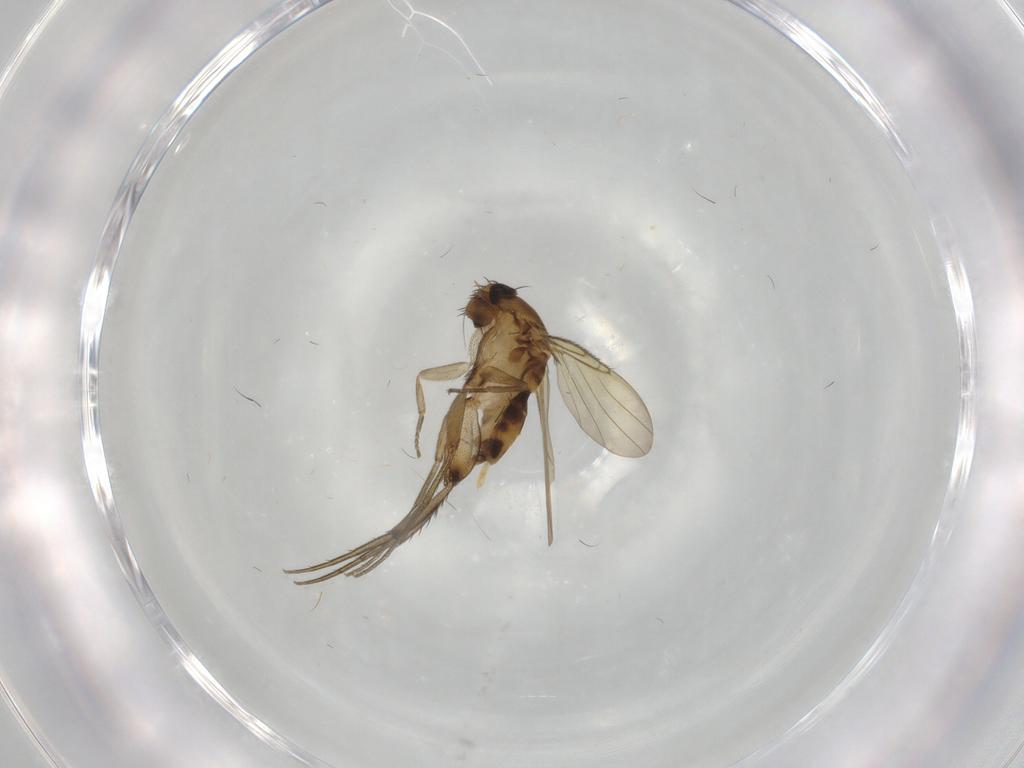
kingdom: Animalia
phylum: Arthropoda
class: Insecta
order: Diptera
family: Phoridae
